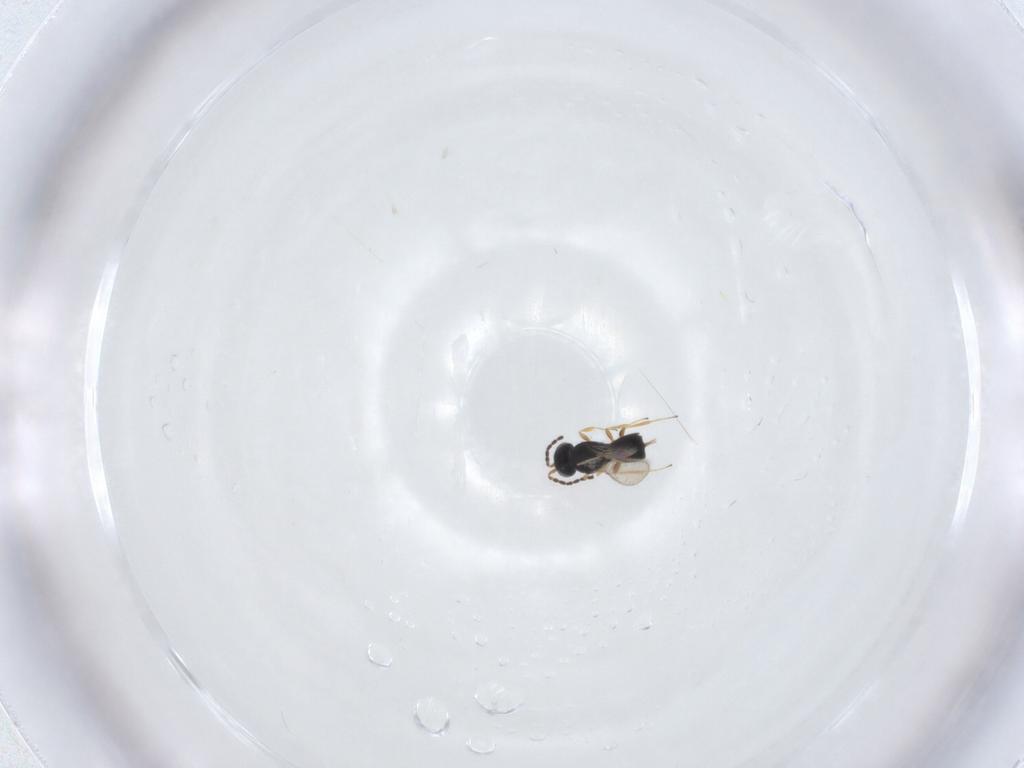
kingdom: Animalia
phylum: Arthropoda
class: Insecta
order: Hymenoptera
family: Scelionidae
